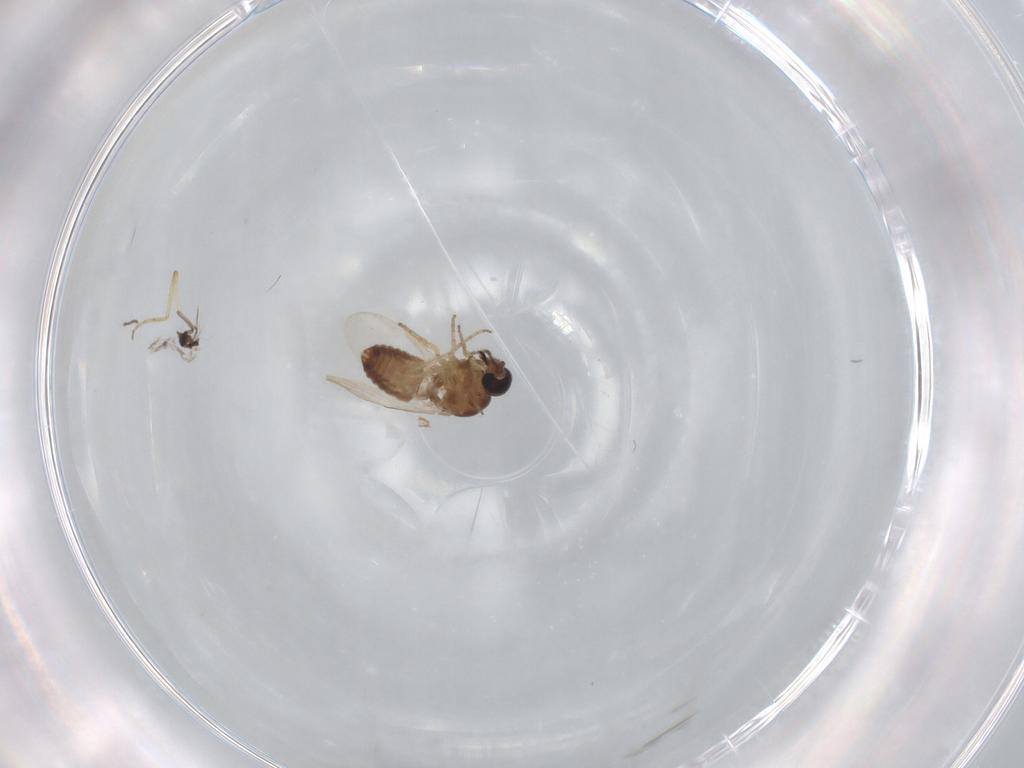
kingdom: Animalia
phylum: Arthropoda
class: Insecta
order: Diptera
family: Ceratopogonidae
